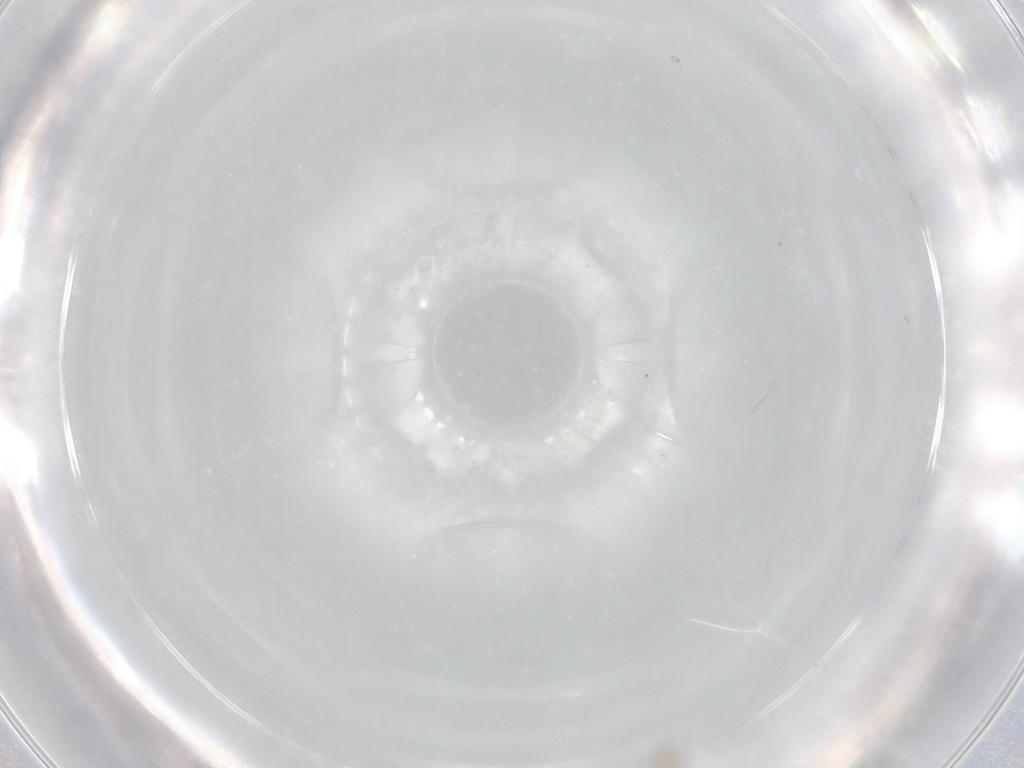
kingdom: Animalia
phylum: Arthropoda
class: Insecta
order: Hymenoptera
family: Mymaridae
